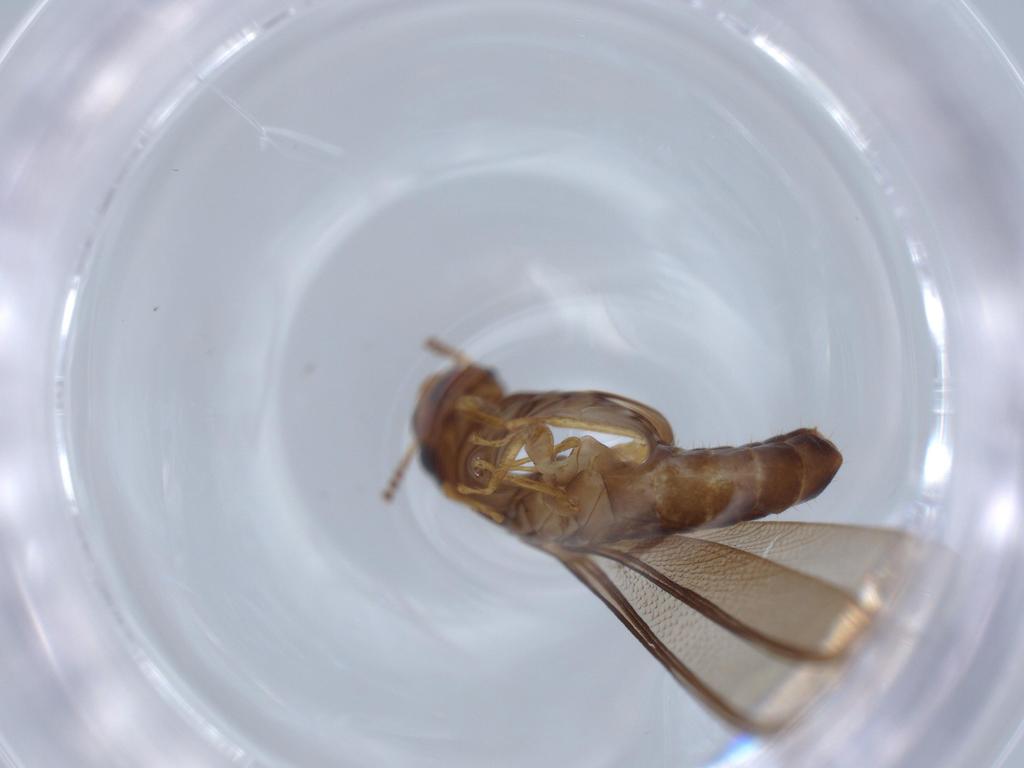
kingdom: Animalia
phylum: Arthropoda
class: Insecta
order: Blattodea
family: Kalotermitidae
